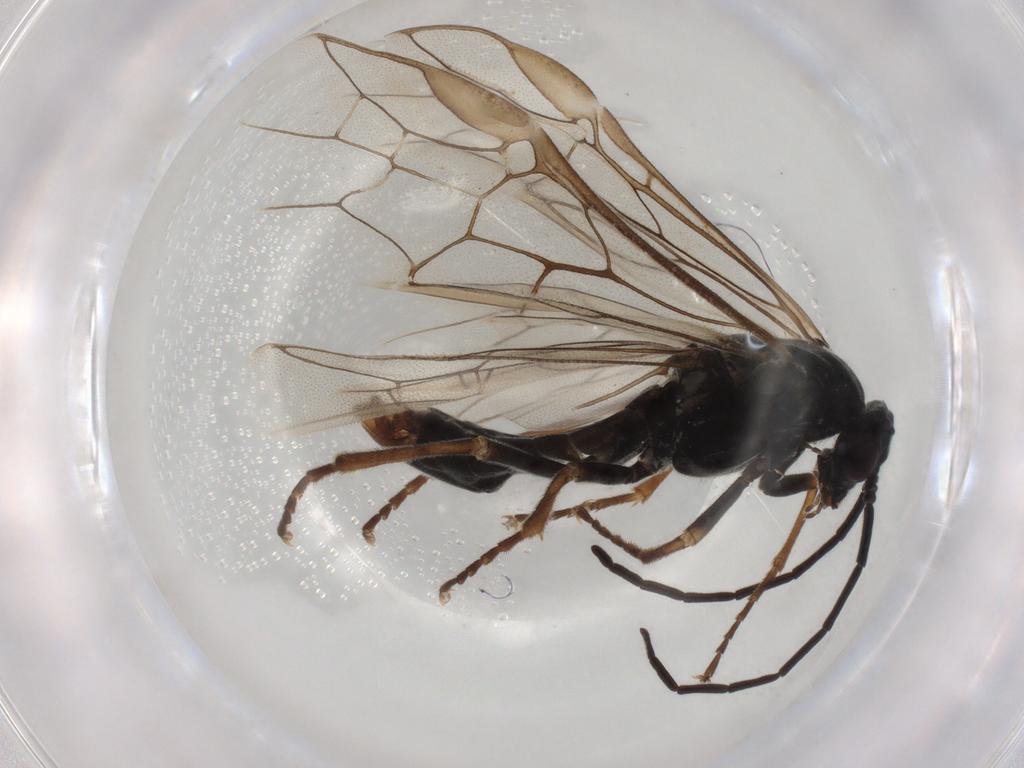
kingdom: Animalia
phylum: Arthropoda
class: Insecta
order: Hymenoptera
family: Tenthredinidae
